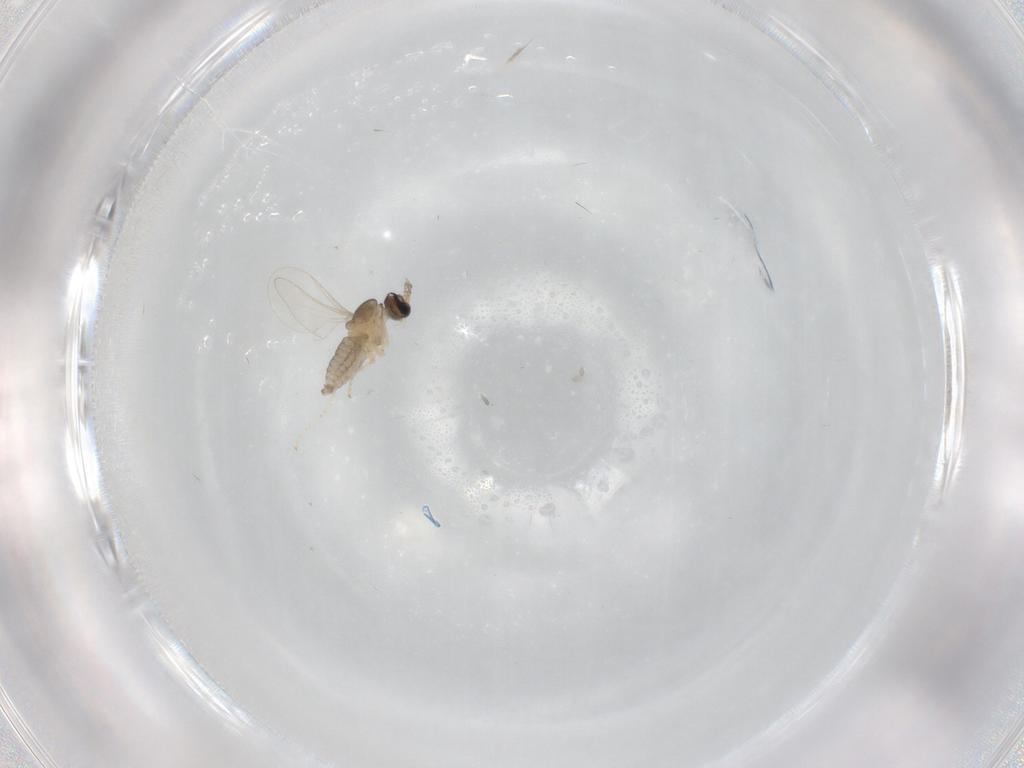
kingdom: Animalia
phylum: Arthropoda
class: Insecta
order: Diptera
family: Cecidomyiidae
